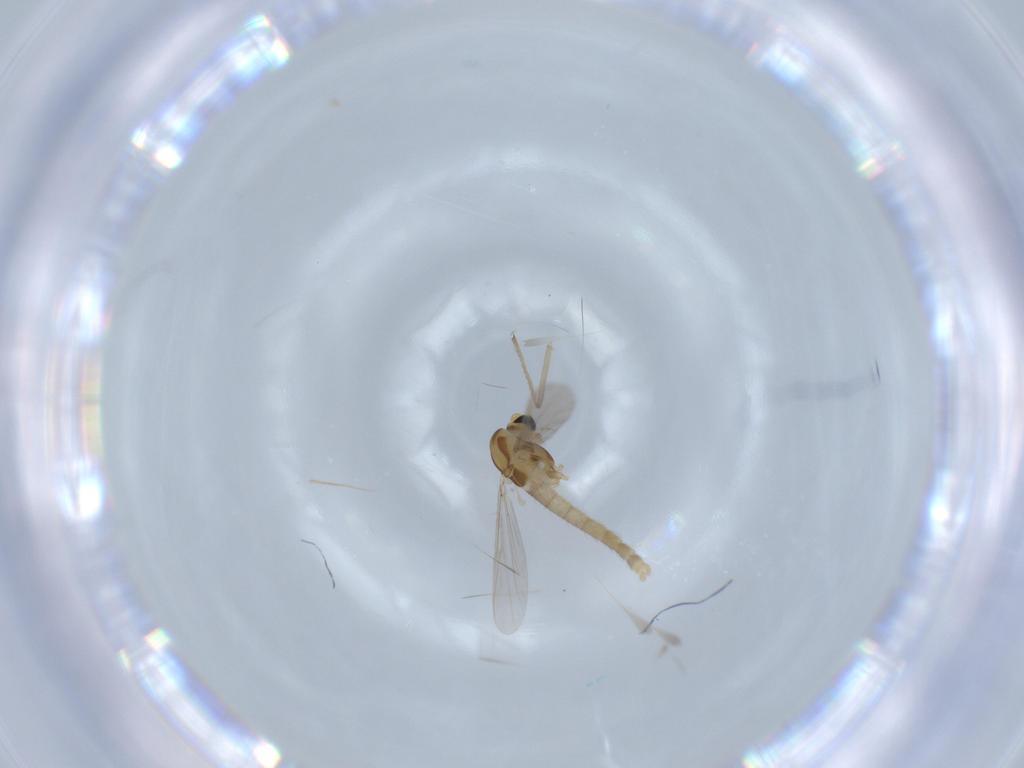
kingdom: Animalia
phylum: Arthropoda
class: Insecta
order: Diptera
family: Chironomidae
